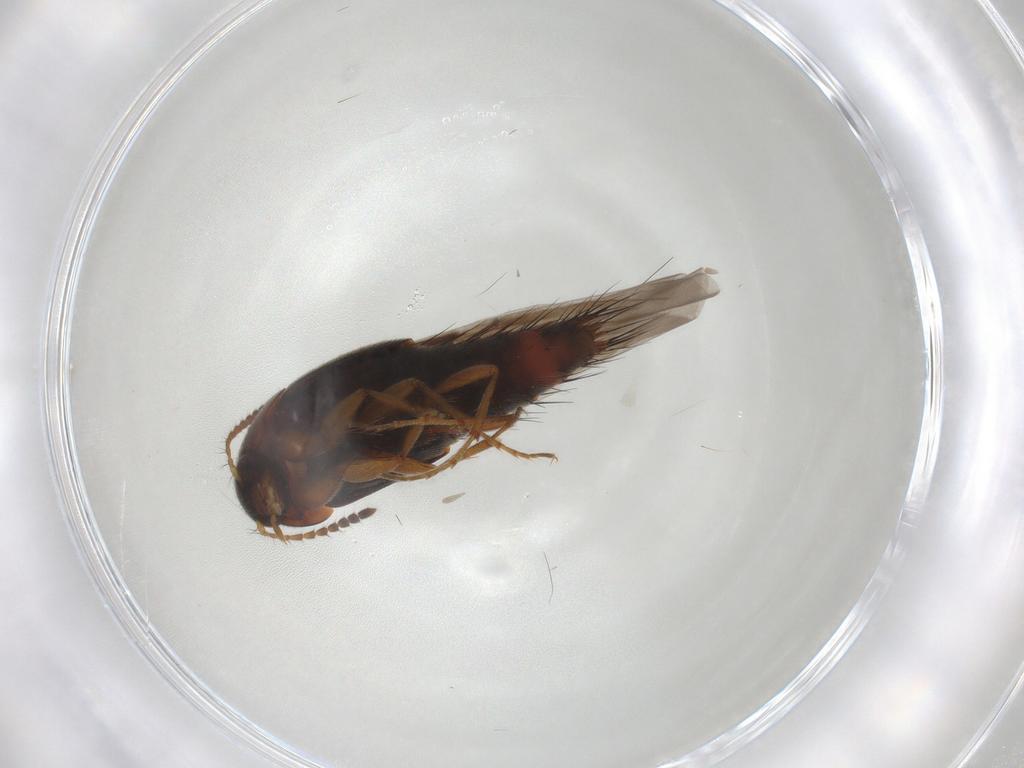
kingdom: Animalia
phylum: Arthropoda
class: Insecta
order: Coleoptera
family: Staphylinidae
